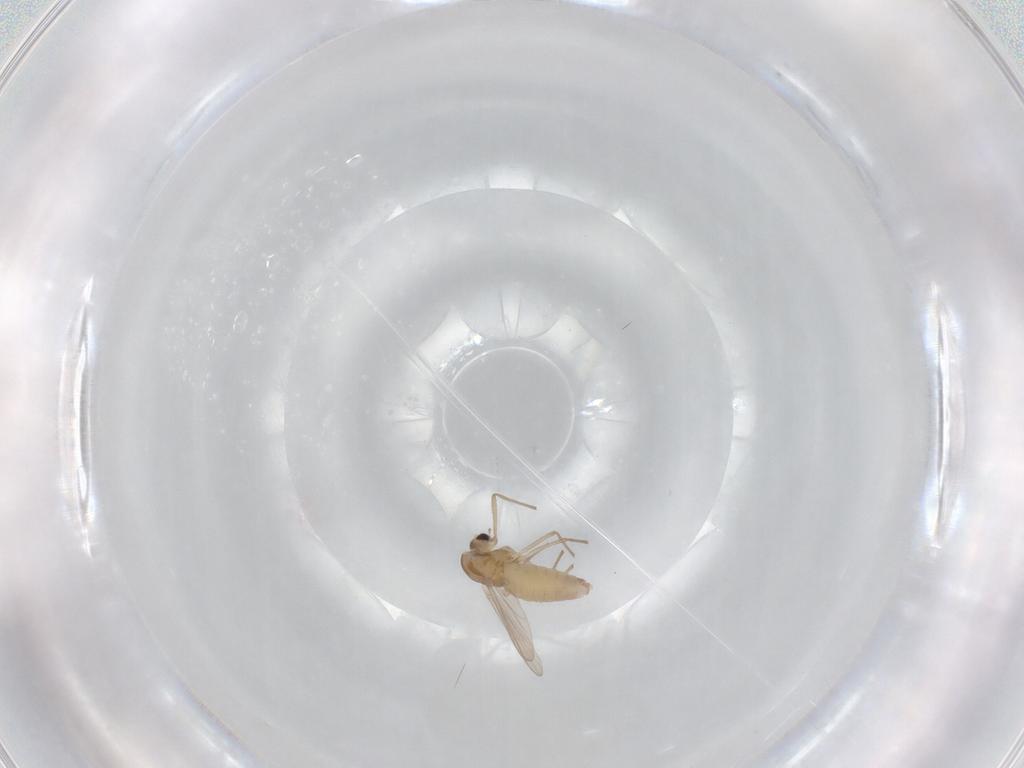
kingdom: Animalia
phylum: Arthropoda
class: Insecta
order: Diptera
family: Chironomidae
